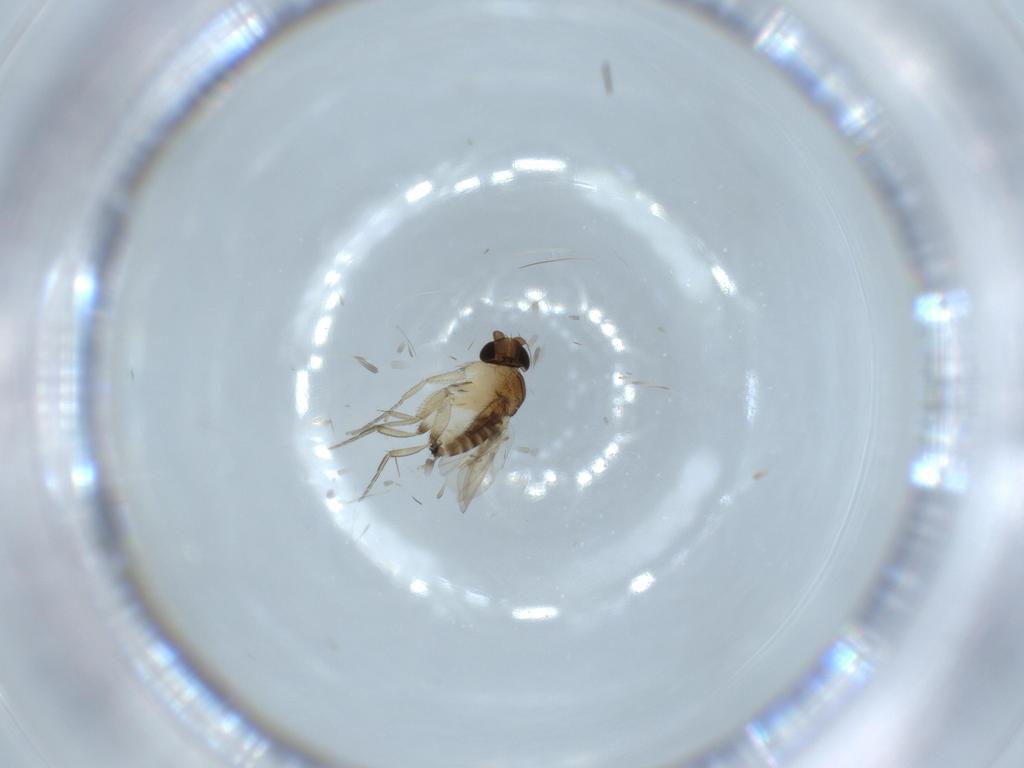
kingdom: Animalia
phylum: Arthropoda
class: Insecta
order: Diptera
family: Sciaridae
